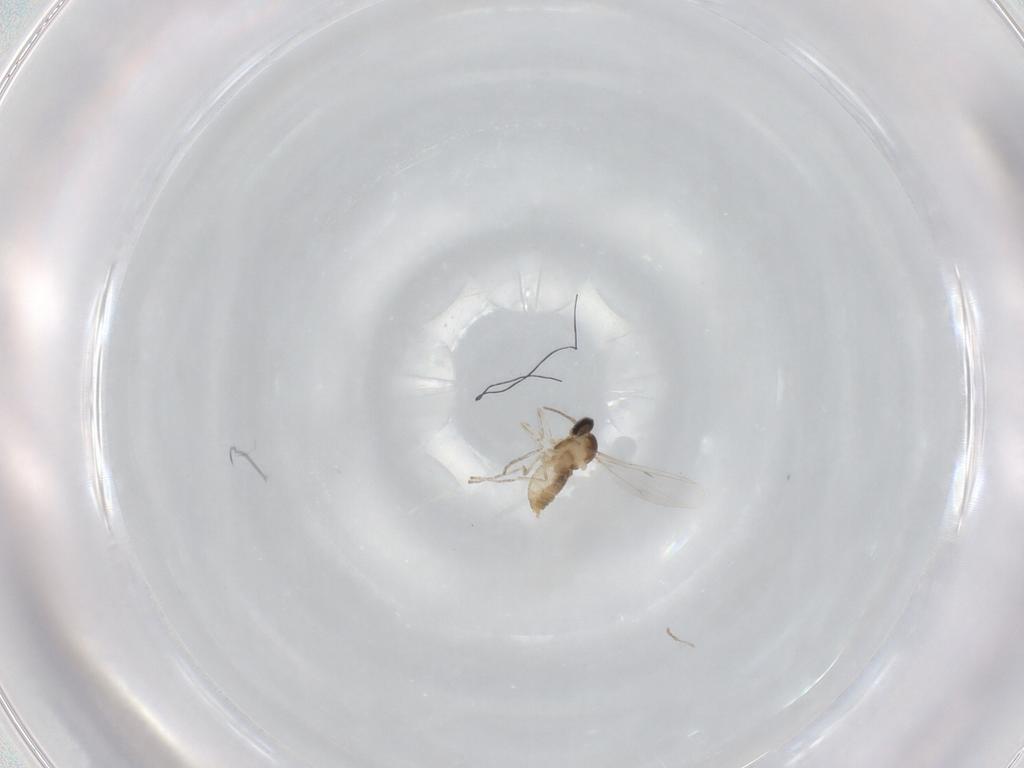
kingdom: Animalia
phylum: Arthropoda
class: Insecta
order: Diptera
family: Cecidomyiidae
